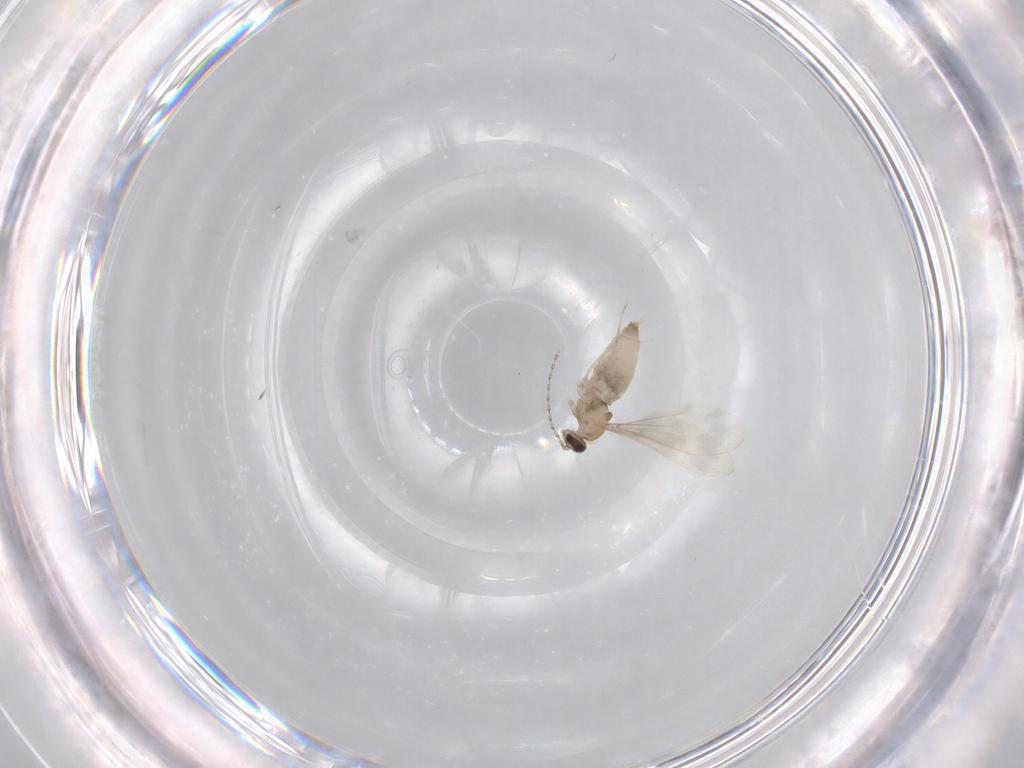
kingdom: Animalia
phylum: Arthropoda
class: Insecta
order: Diptera
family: Cecidomyiidae
